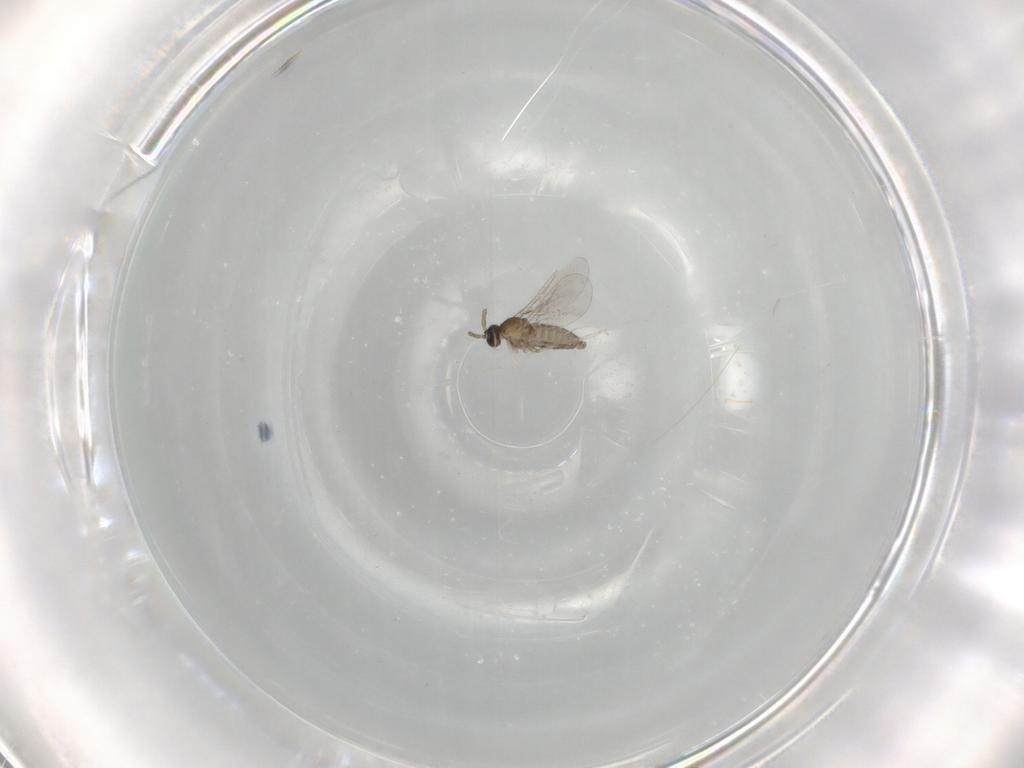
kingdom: Animalia
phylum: Arthropoda
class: Insecta
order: Diptera
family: Cecidomyiidae
